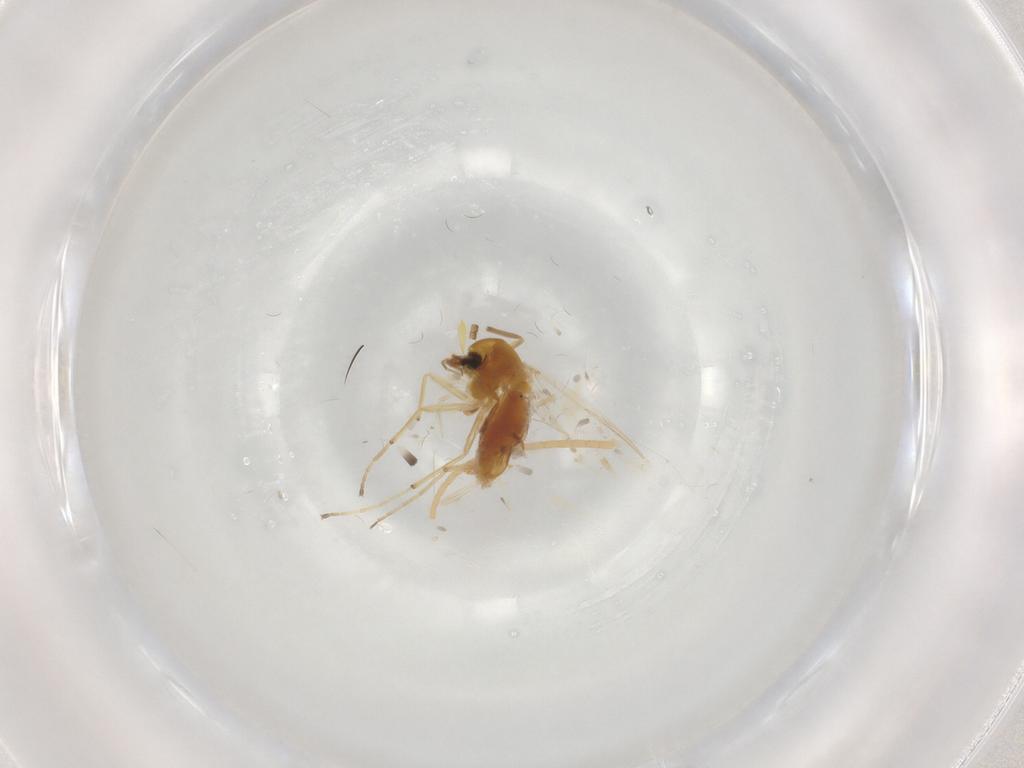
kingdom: Animalia
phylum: Arthropoda
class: Insecta
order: Diptera
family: Chironomidae
